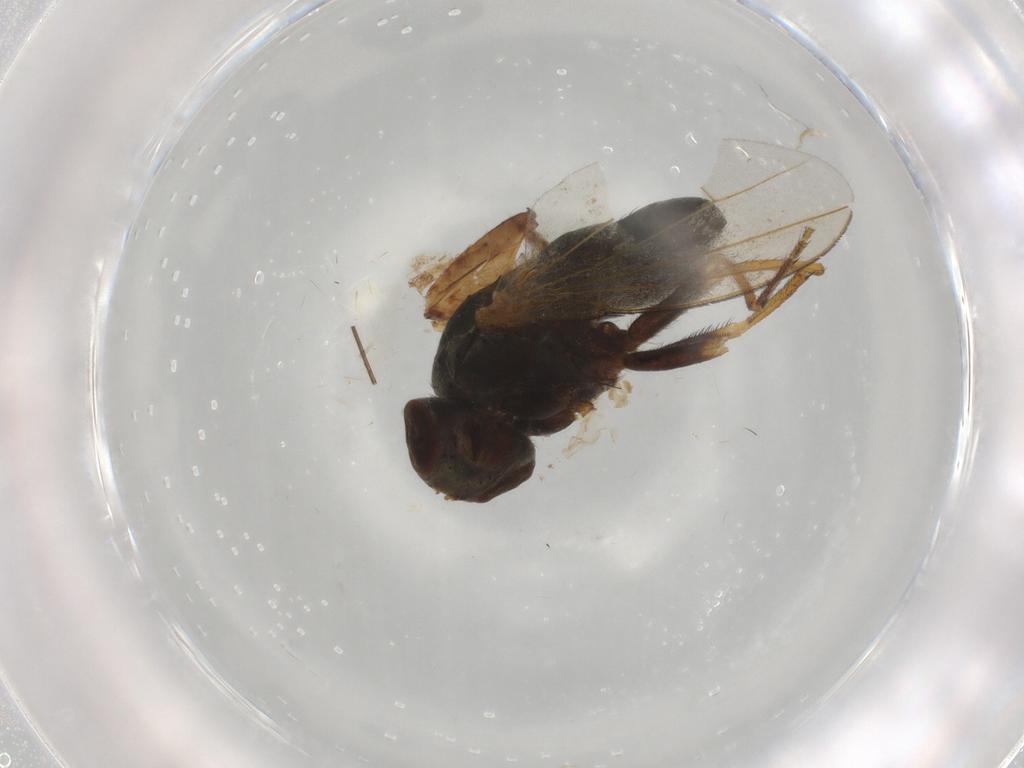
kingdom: Animalia
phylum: Arthropoda
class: Insecta
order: Diptera
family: Ephydridae
